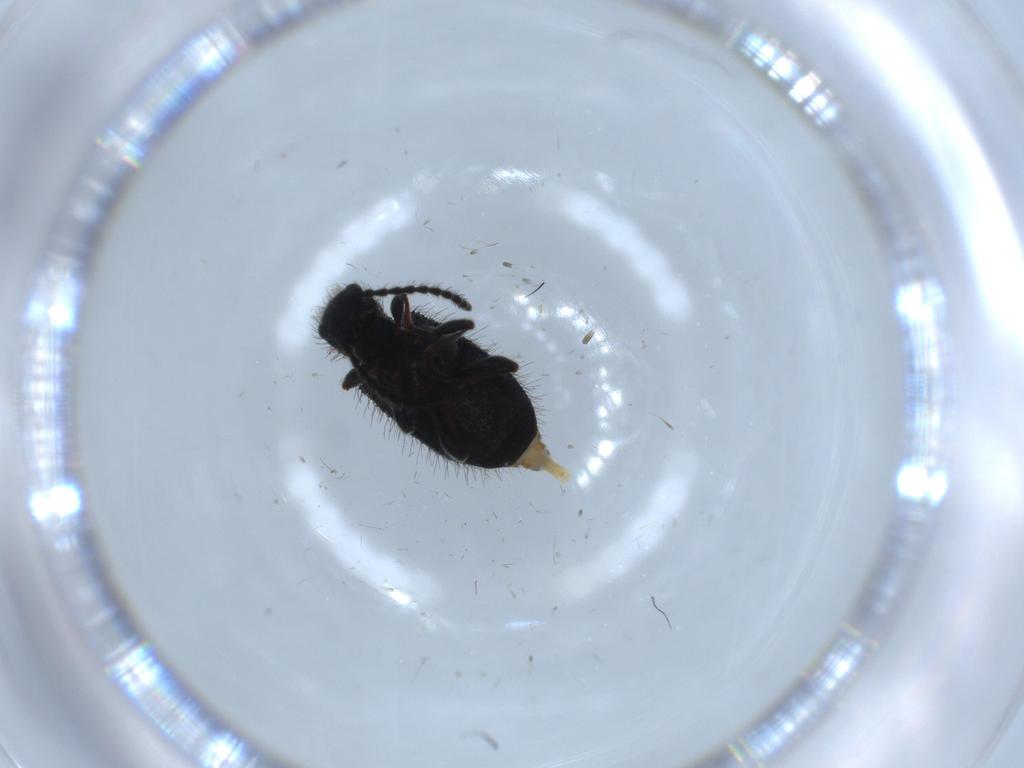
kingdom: Animalia
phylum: Arthropoda
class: Insecta
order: Coleoptera
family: Ptinidae
